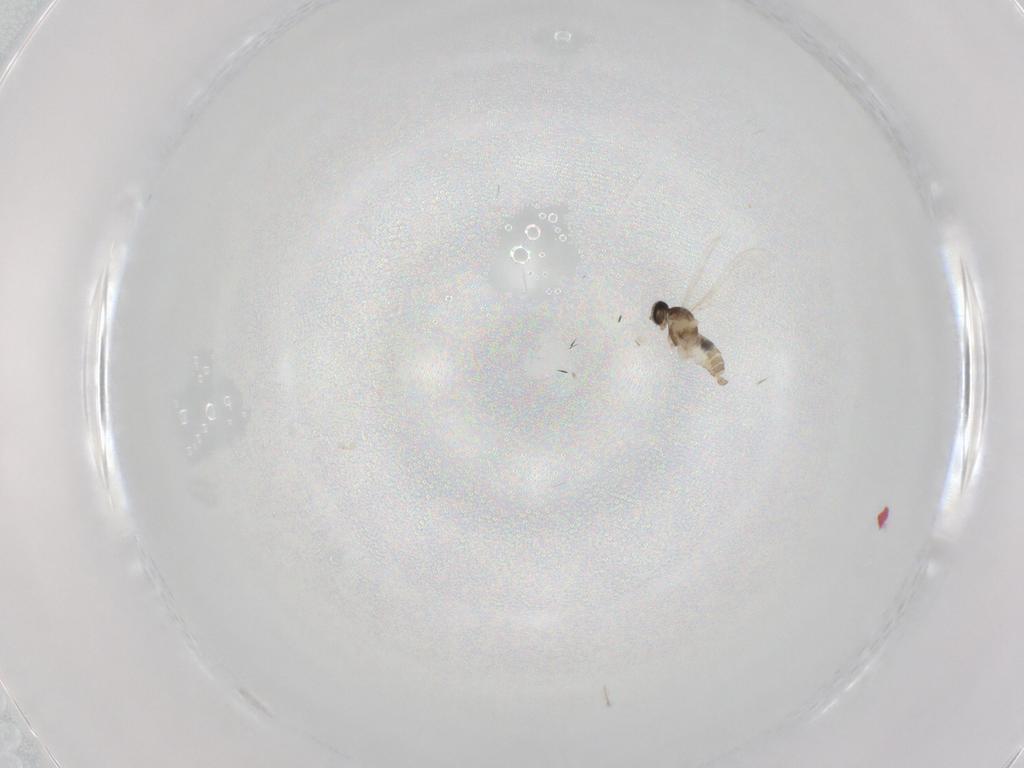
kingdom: Animalia
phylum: Arthropoda
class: Insecta
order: Diptera
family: Cecidomyiidae
